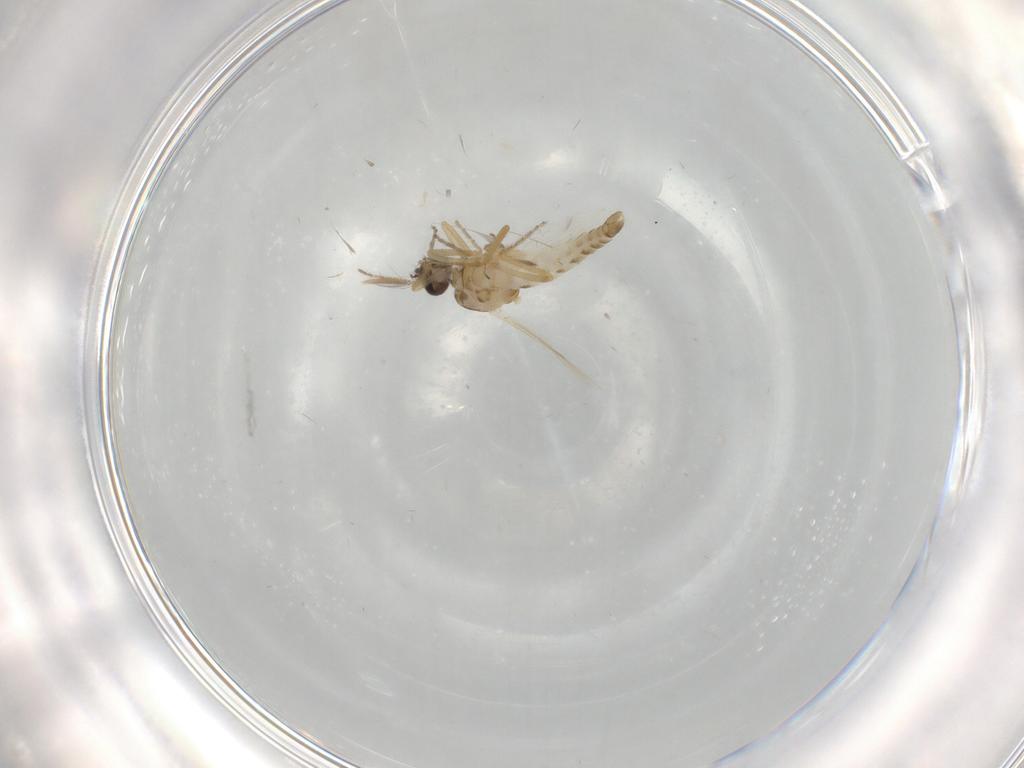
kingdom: Animalia
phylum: Arthropoda
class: Insecta
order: Diptera
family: Ceratopogonidae
